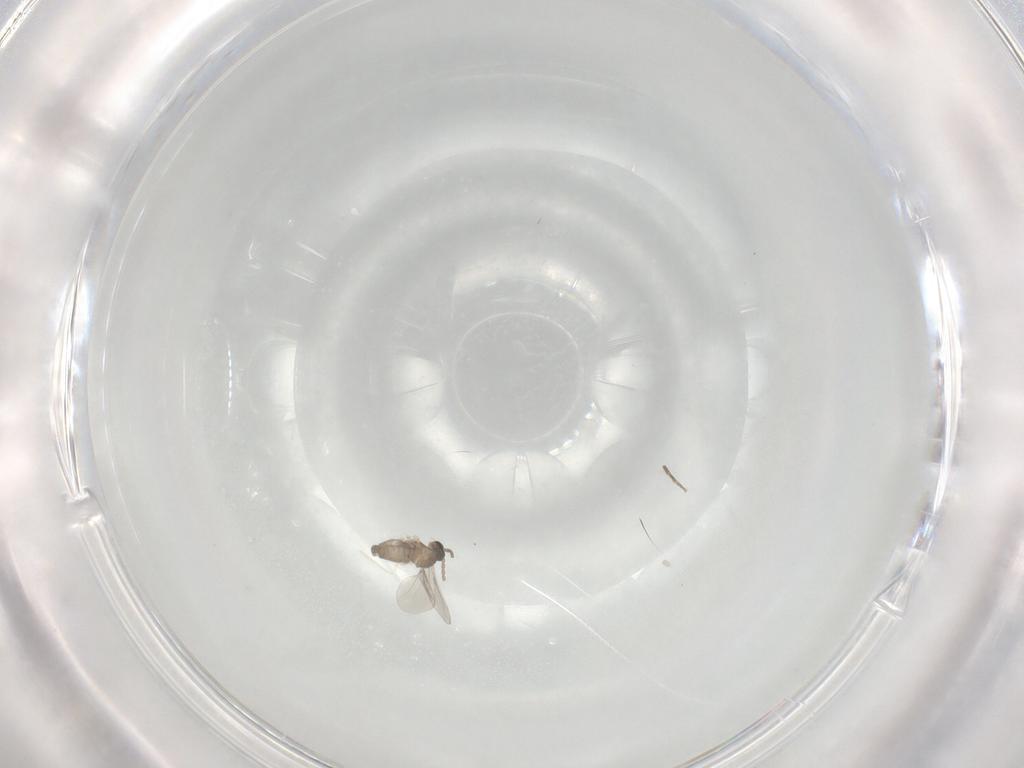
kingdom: Animalia
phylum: Arthropoda
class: Insecta
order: Diptera
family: Cecidomyiidae
